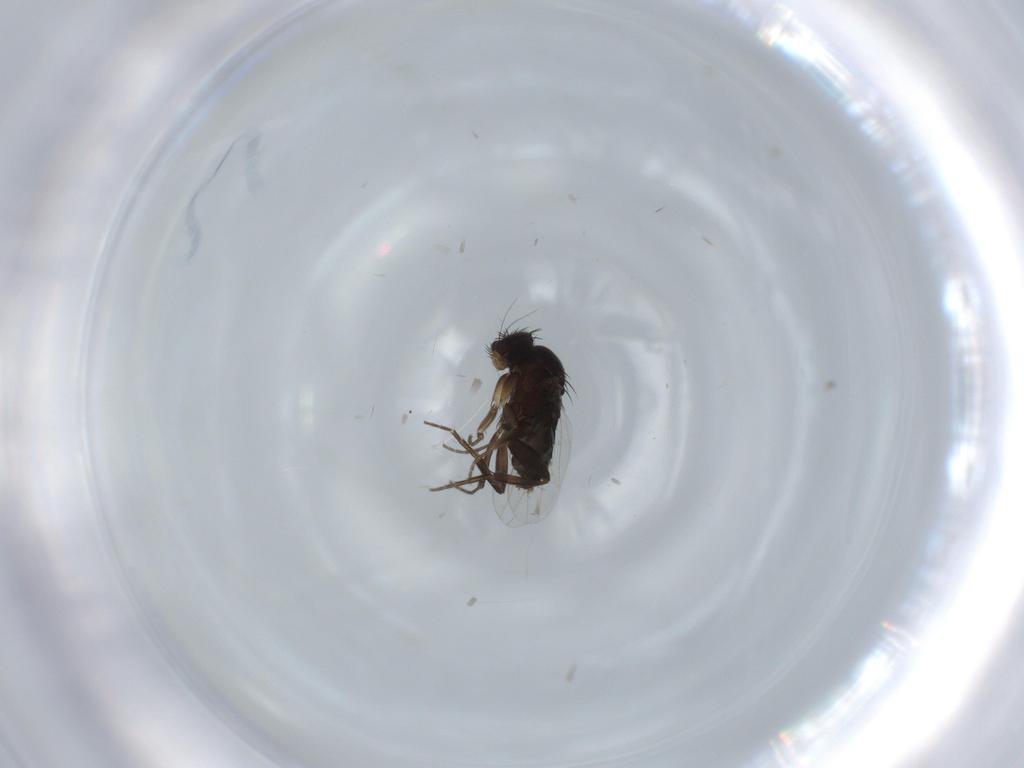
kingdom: Animalia
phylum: Arthropoda
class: Insecta
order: Diptera
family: Phoridae
